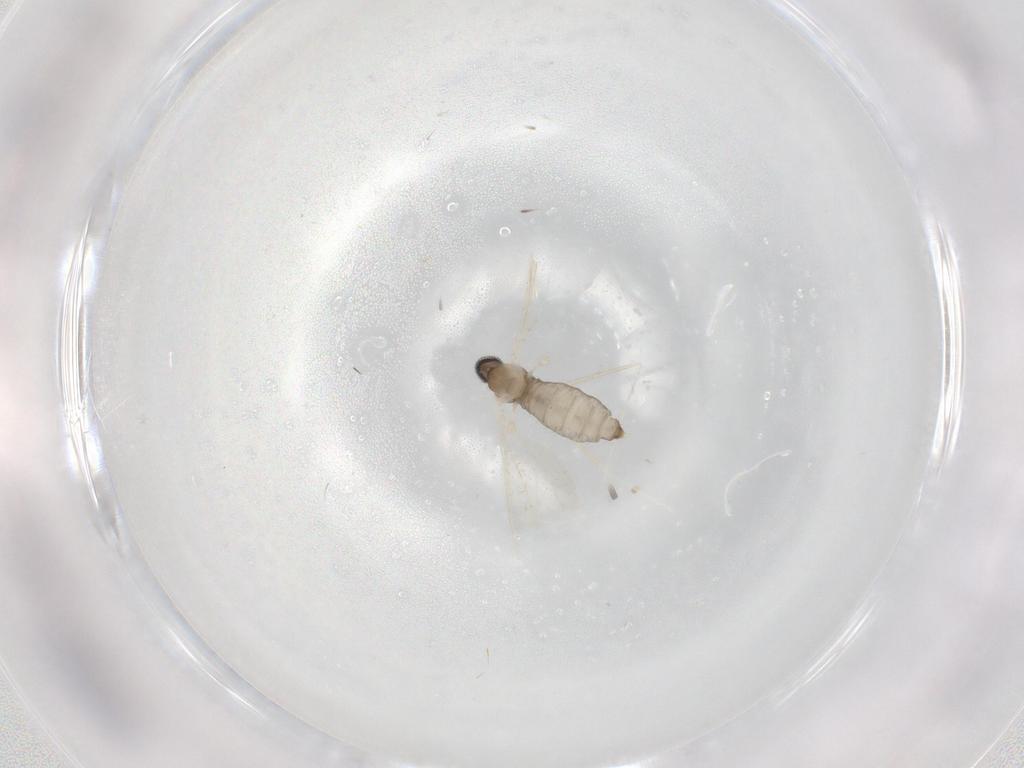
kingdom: Animalia
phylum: Arthropoda
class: Insecta
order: Diptera
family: Cecidomyiidae
